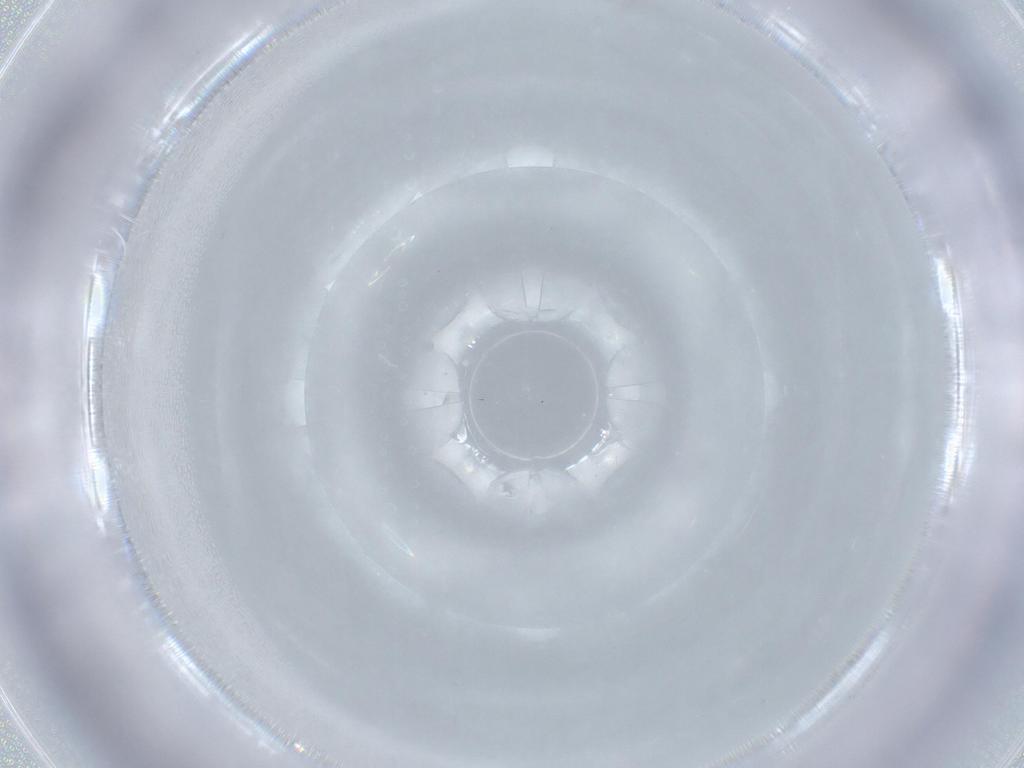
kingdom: Animalia
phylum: Arthropoda
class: Insecta
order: Diptera
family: Sciaridae
